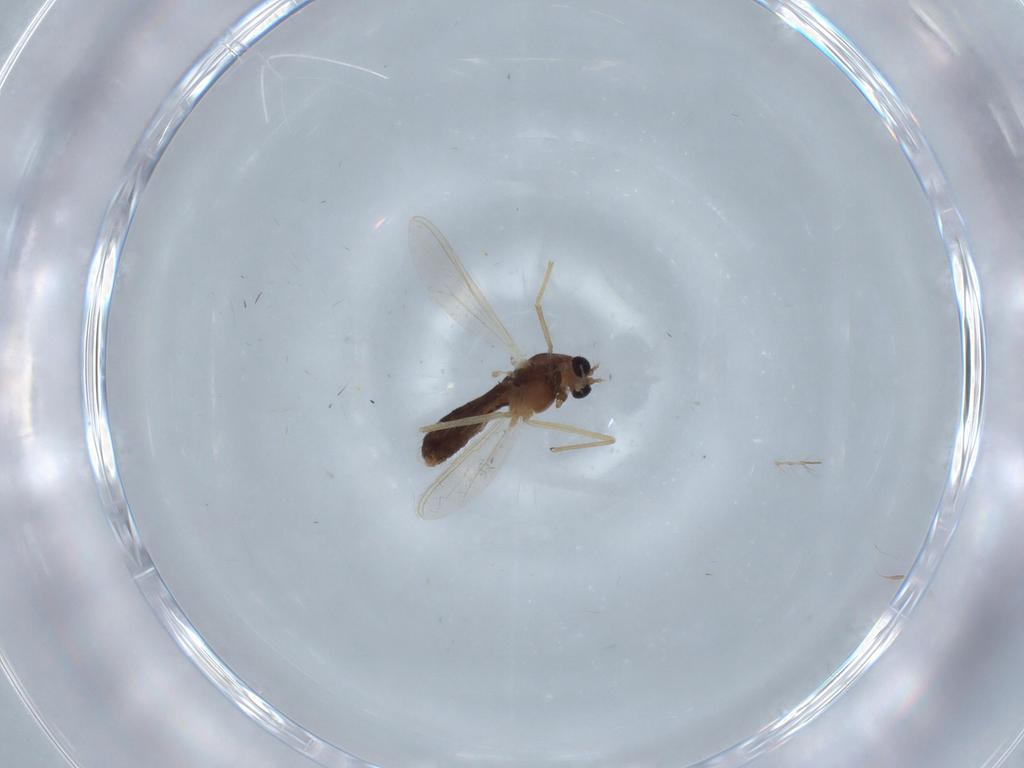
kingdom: Animalia
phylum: Arthropoda
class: Insecta
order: Diptera
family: Chironomidae
